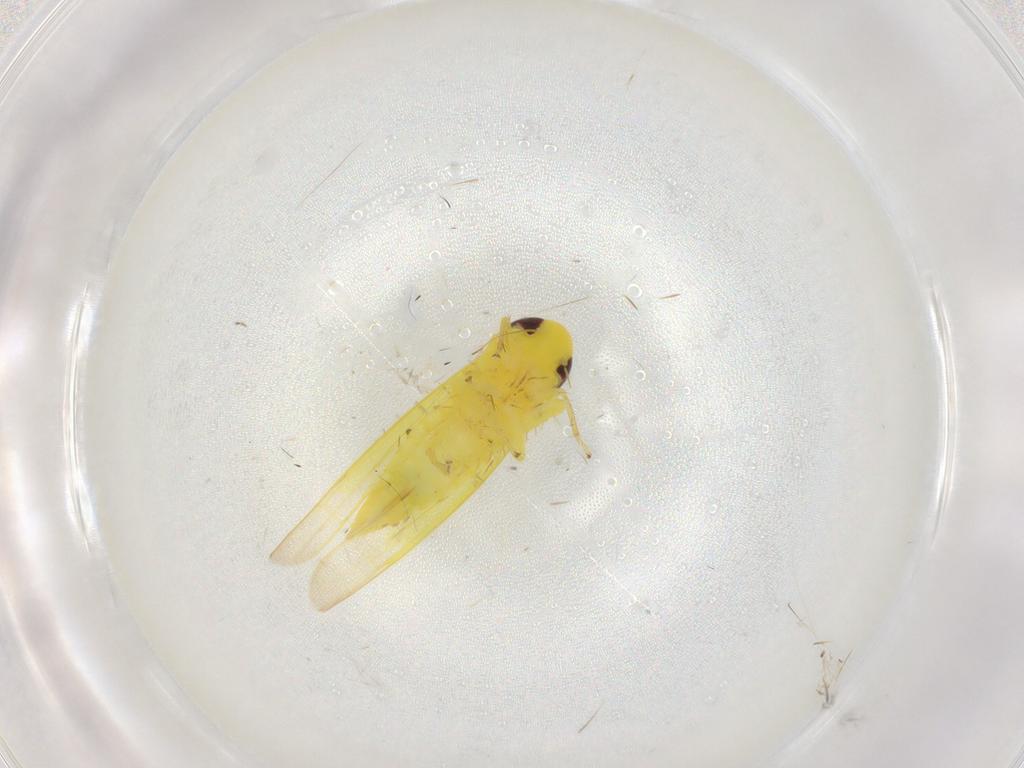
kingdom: Animalia
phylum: Arthropoda
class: Insecta
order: Hemiptera
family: Cicadellidae
